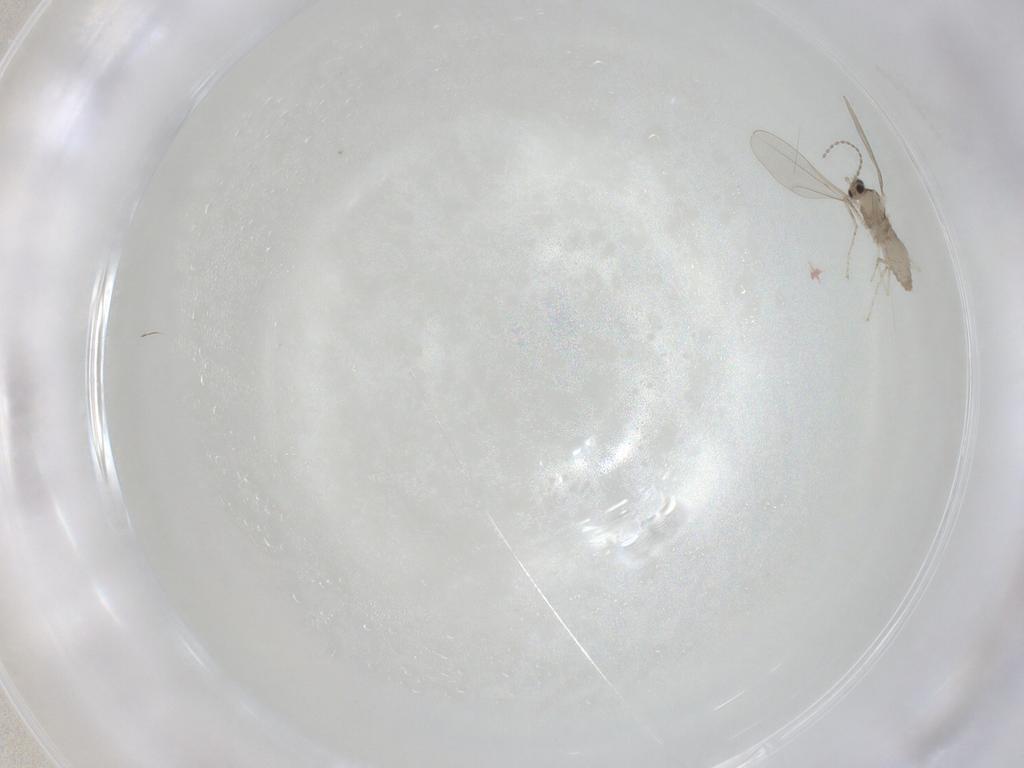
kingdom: Animalia
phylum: Arthropoda
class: Insecta
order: Diptera
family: Cecidomyiidae
